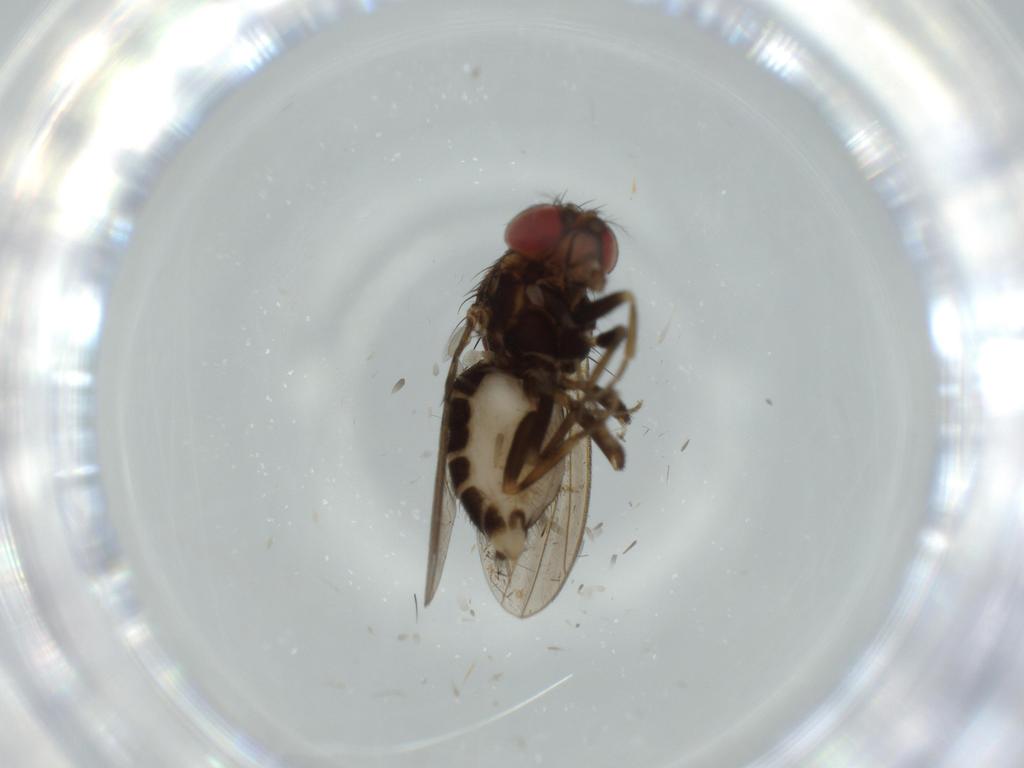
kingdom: Animalia
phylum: Arthropoda
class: Insecta
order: Diptera
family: Drosophilidae
